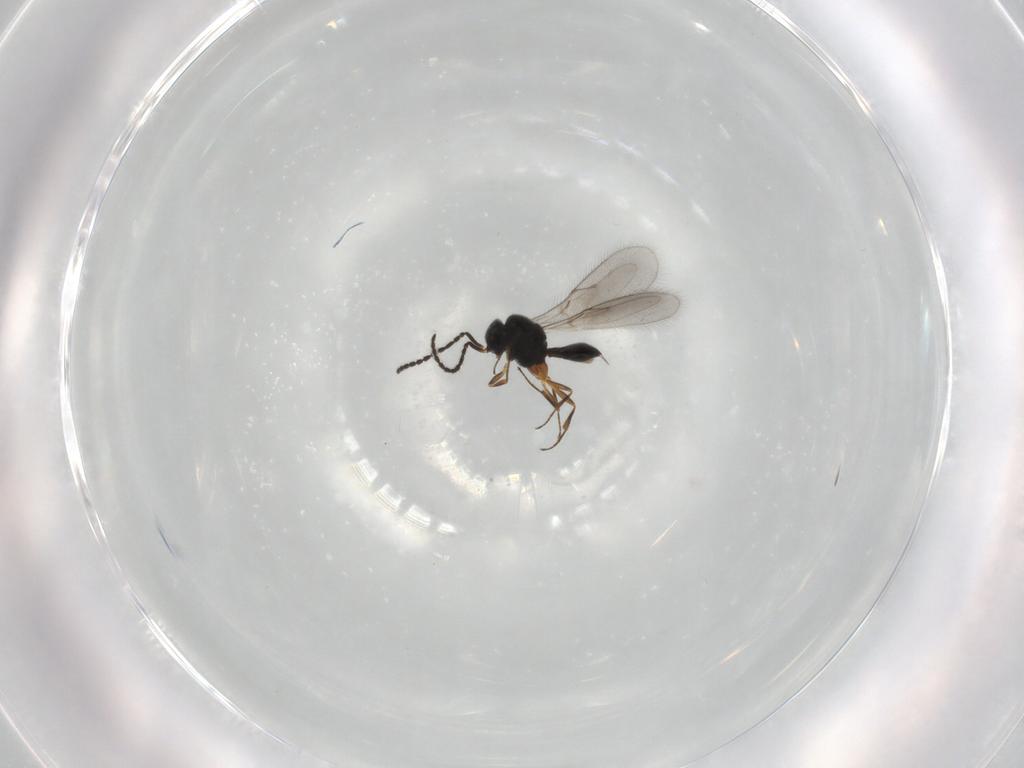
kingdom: Animalia
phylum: Arthropoda
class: Insecta
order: Hymenoptera
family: Scelionidae
